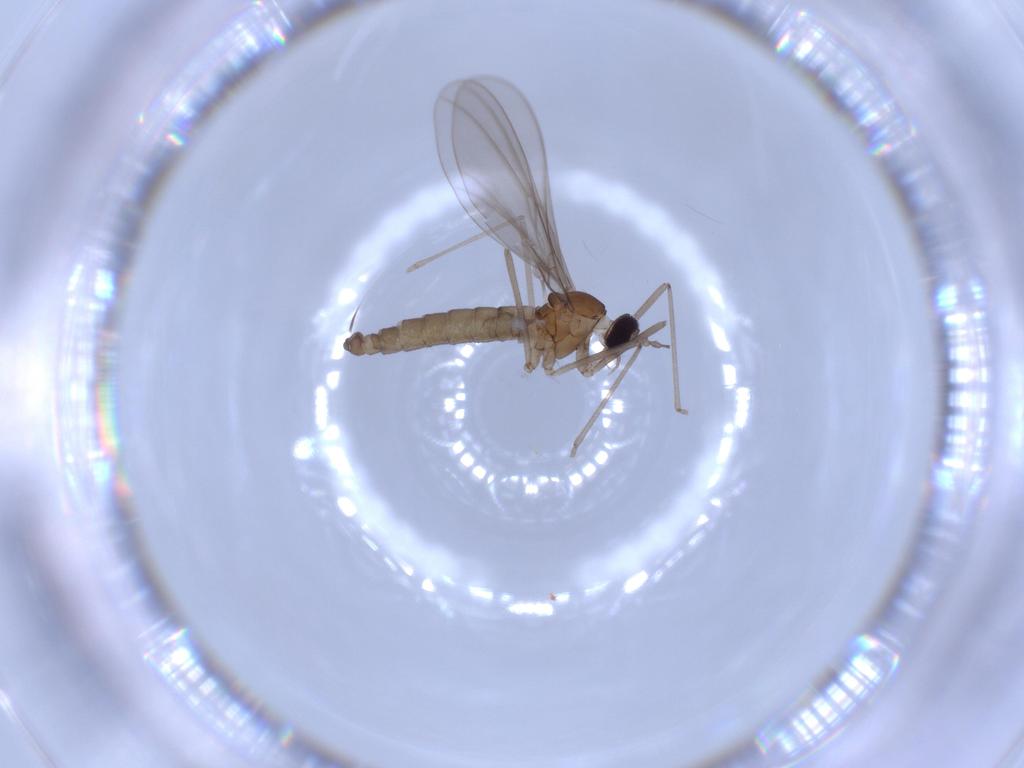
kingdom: Animalia
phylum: Arthropoda
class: Insecta
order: Diptera
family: Cecidomyiidae
